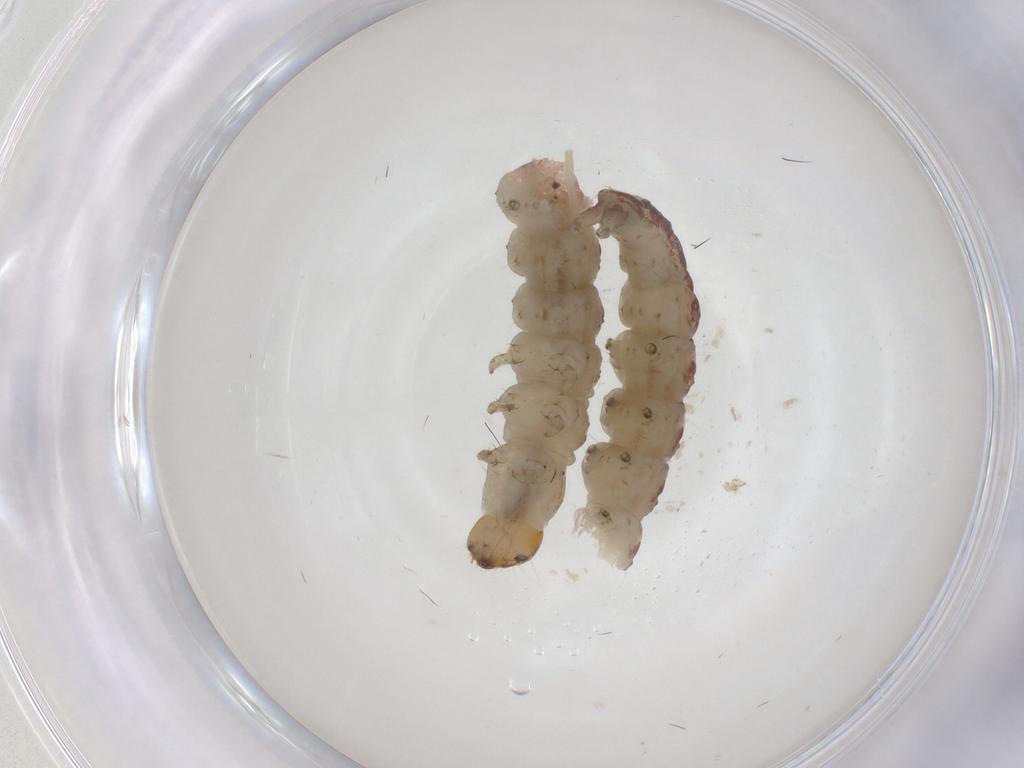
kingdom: Animalia
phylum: Arthropoda
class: Insecta
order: Lepidoptera
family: Depressariidae
